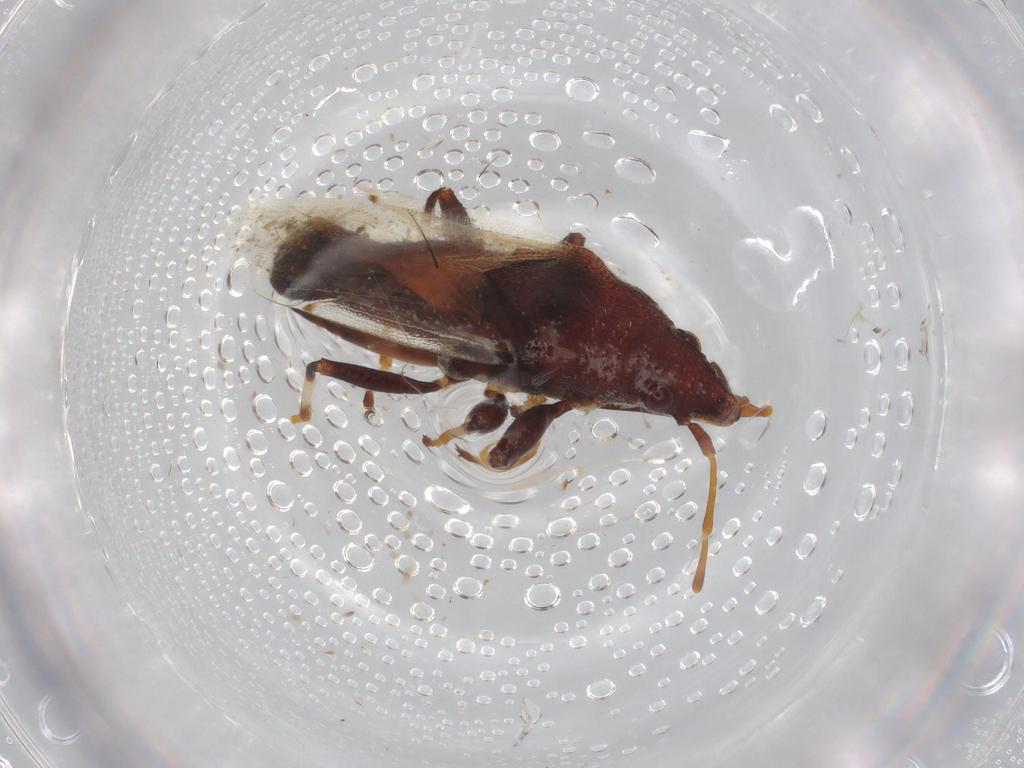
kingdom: Animalia
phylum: Arthropoda
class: Insecta
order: Hemiptera
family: Oxycarenidae
